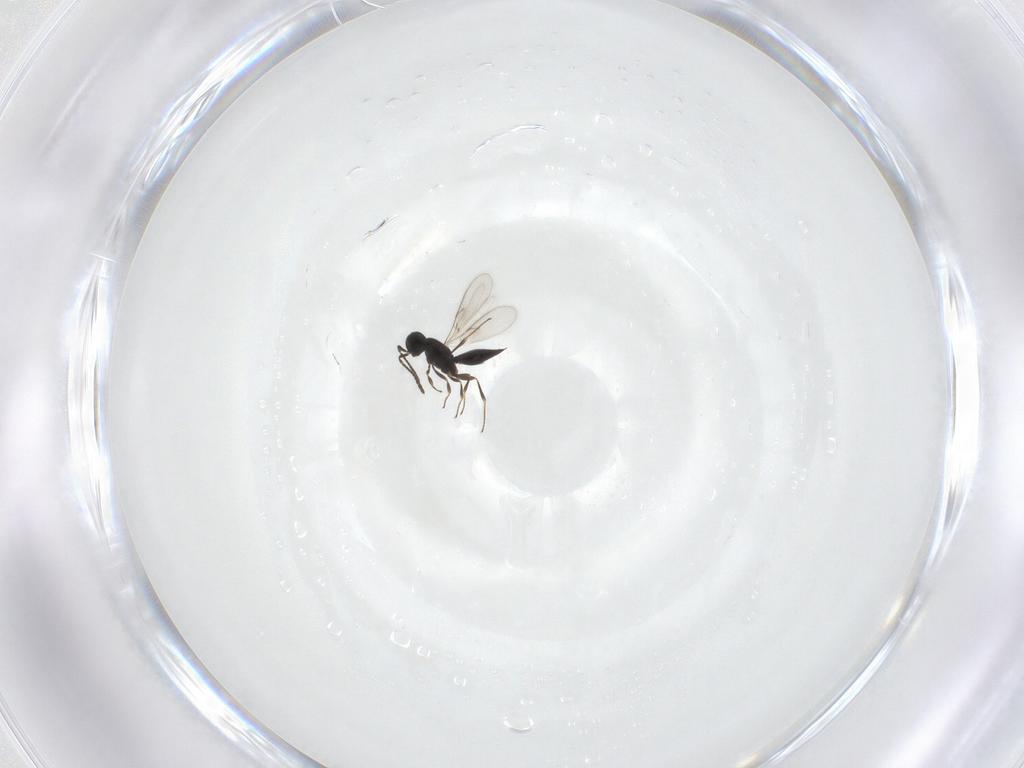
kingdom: Animalia
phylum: Arthropoda
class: Insecta
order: Hymenoptera
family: Scelionidae
